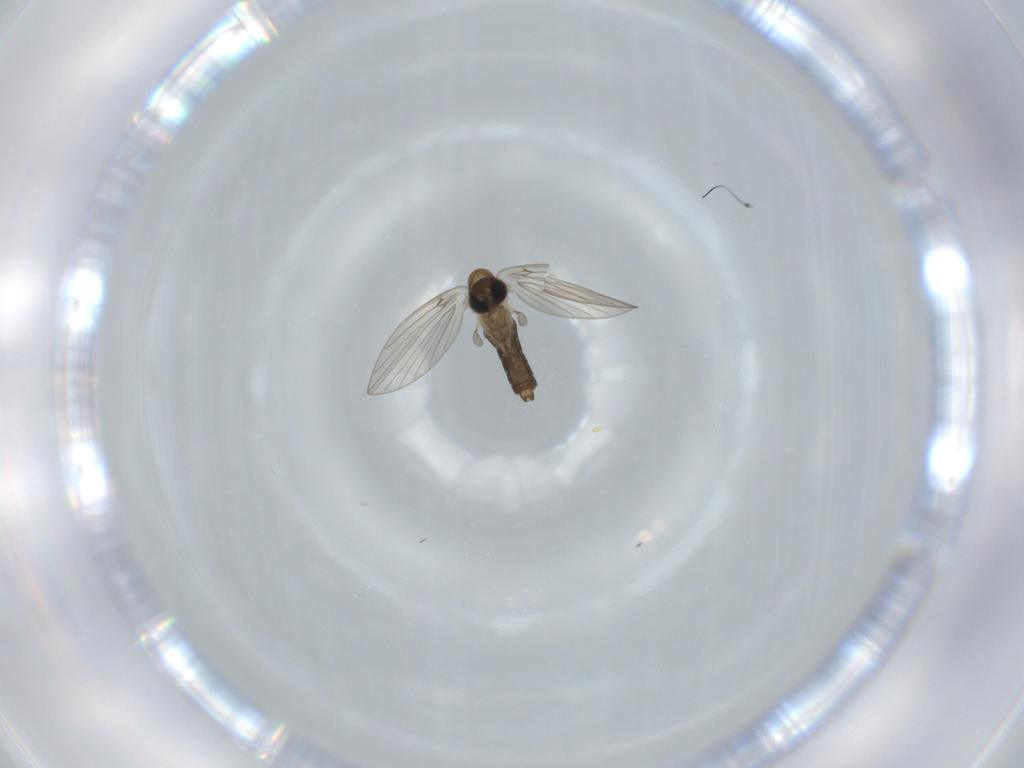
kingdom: Animalia
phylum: Arthropoda
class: Insecta
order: Diptera
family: Psychodidae
